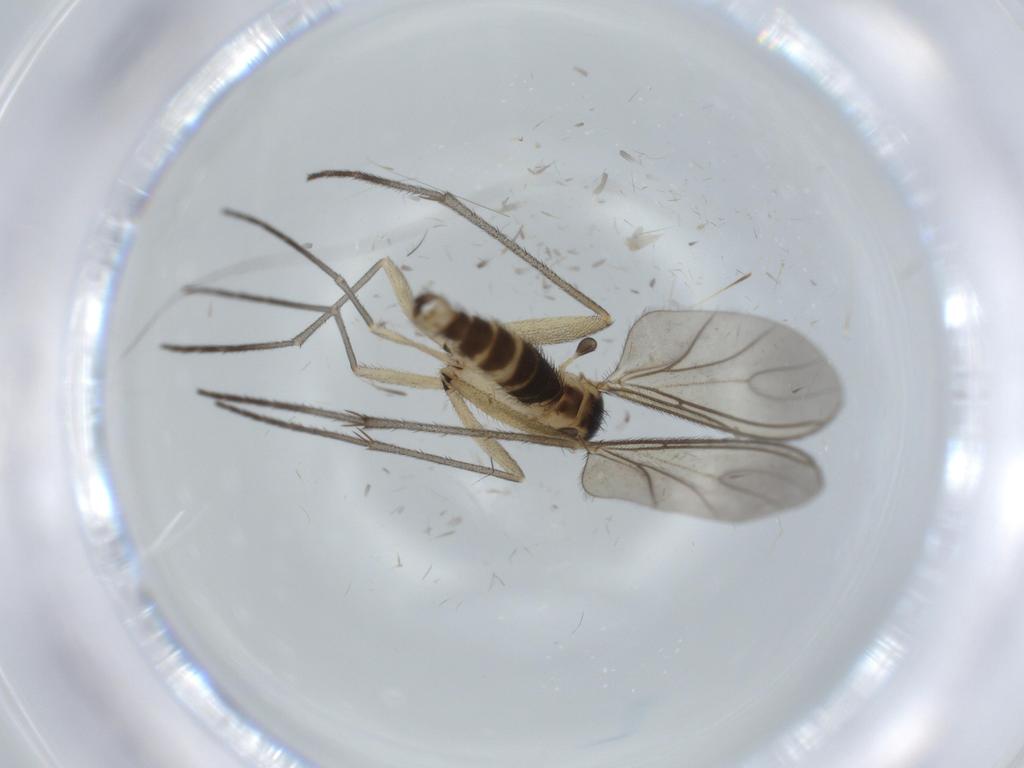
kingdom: Animalia
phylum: Arthropoda
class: Insecta
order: Diptera
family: Sciaridae
